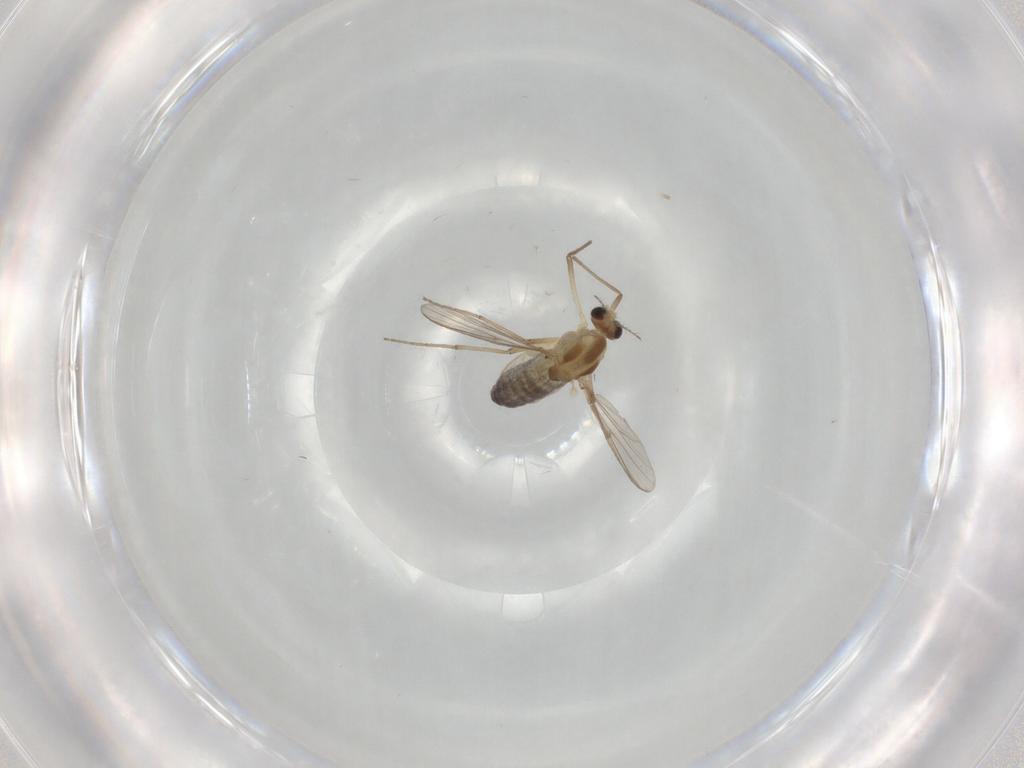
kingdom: Animalia
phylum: Arthropoda
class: Insecta
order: Diptera
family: Chironomidae
